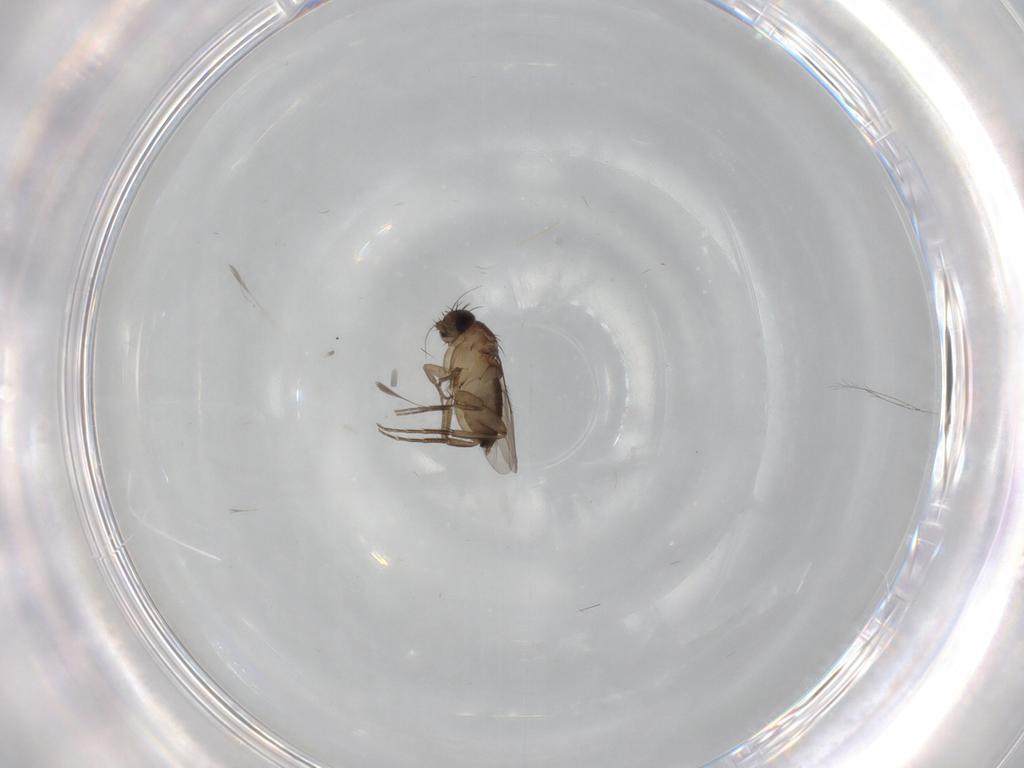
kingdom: Animalia
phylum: Arthropoda
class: Insecta
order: Diptera
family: Phoridae
